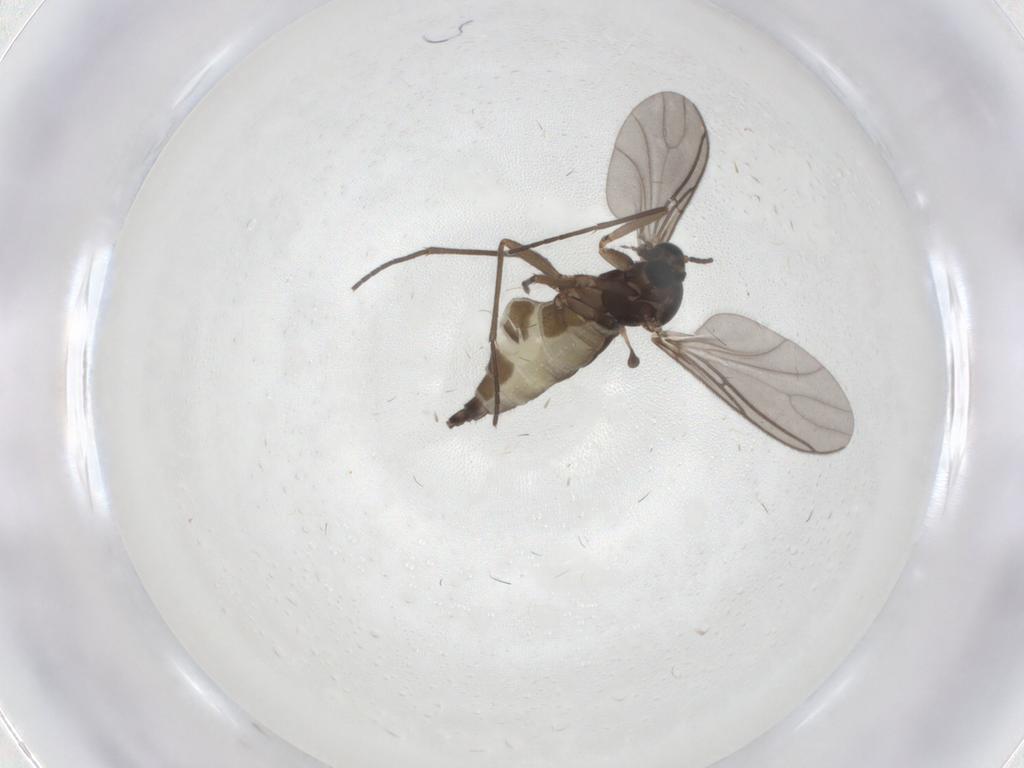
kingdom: Animalia
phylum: Arthropoda
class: Insecta
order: Diptera
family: Sciaridae
